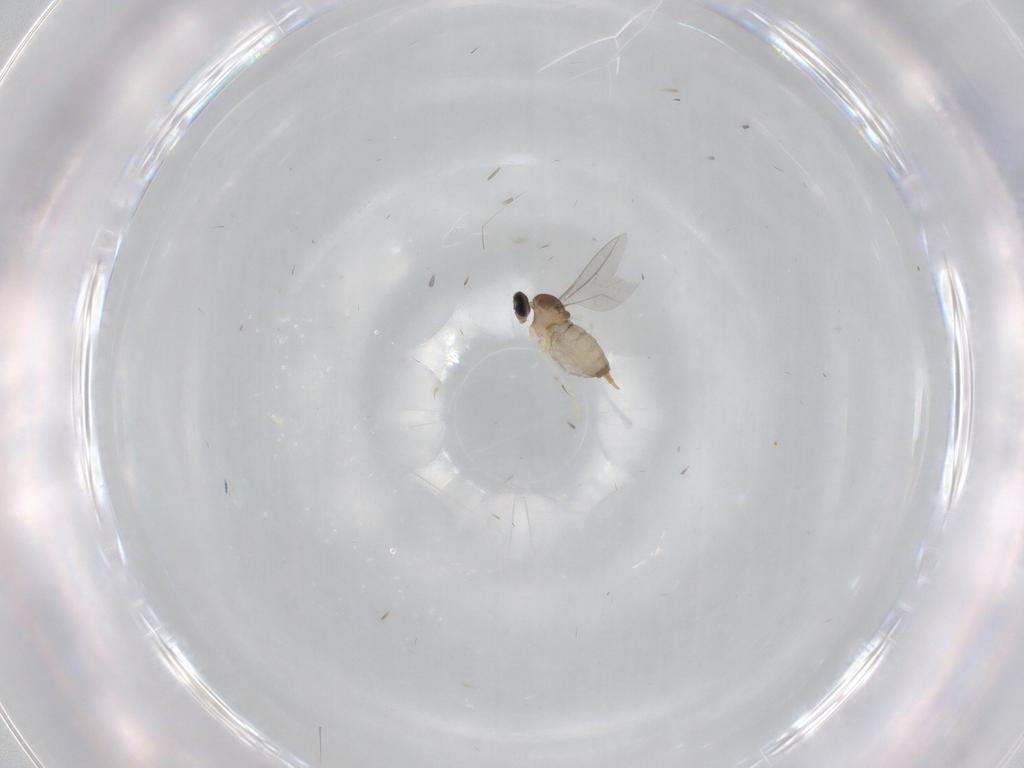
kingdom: Animalia
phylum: Arthropoda
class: Insecta
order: Diptera
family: Cecidomyiidae
